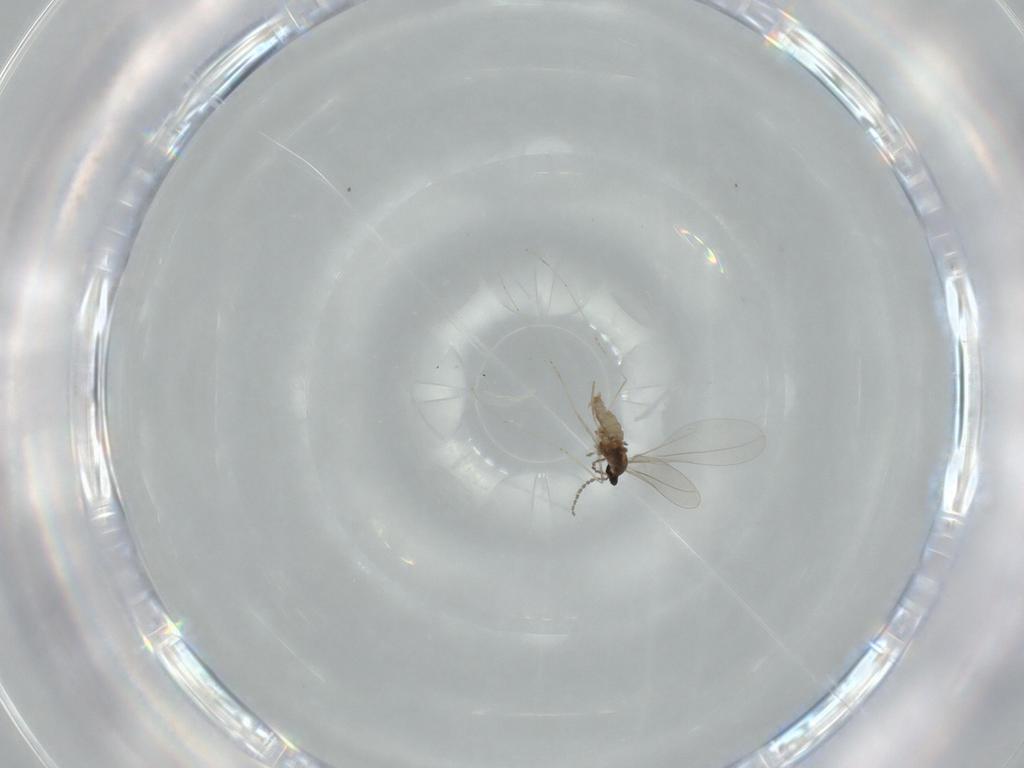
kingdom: Animalia
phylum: Arthropoda
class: Insecta
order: Diptera
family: Cecidomyiidae
